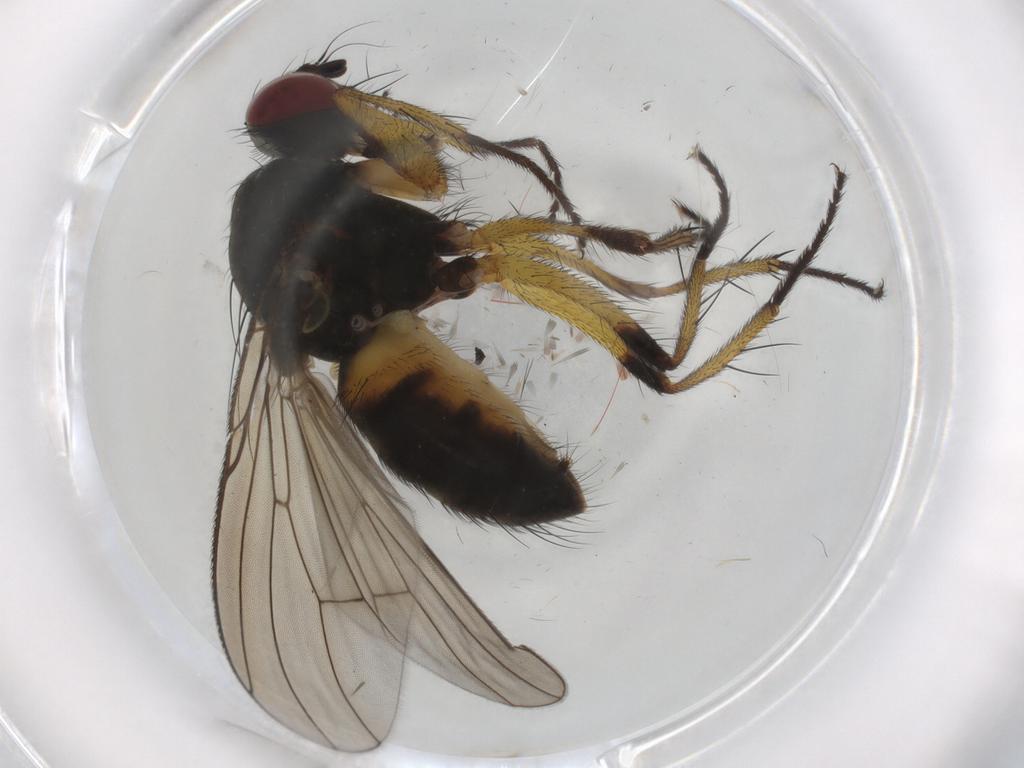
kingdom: Animalia
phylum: Arthropoda
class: Insecta
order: Diptera
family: Muscidae
